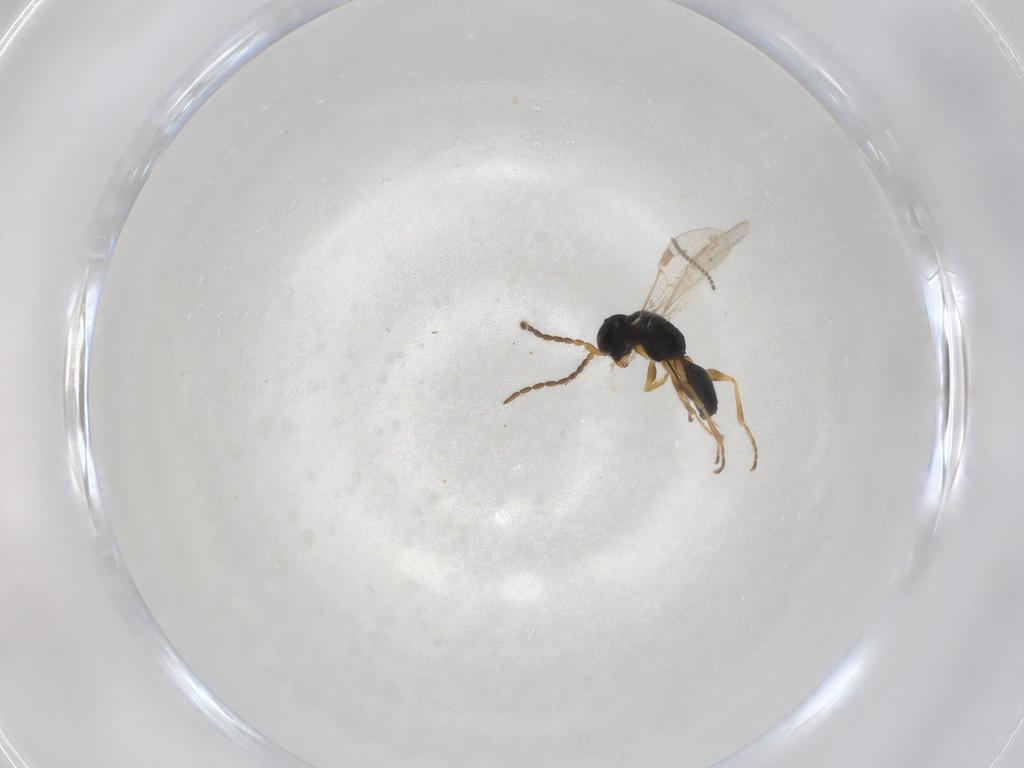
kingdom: Animalia
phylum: Arthropoda
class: Insecta
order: Hymenoptera
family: Dryinidae
